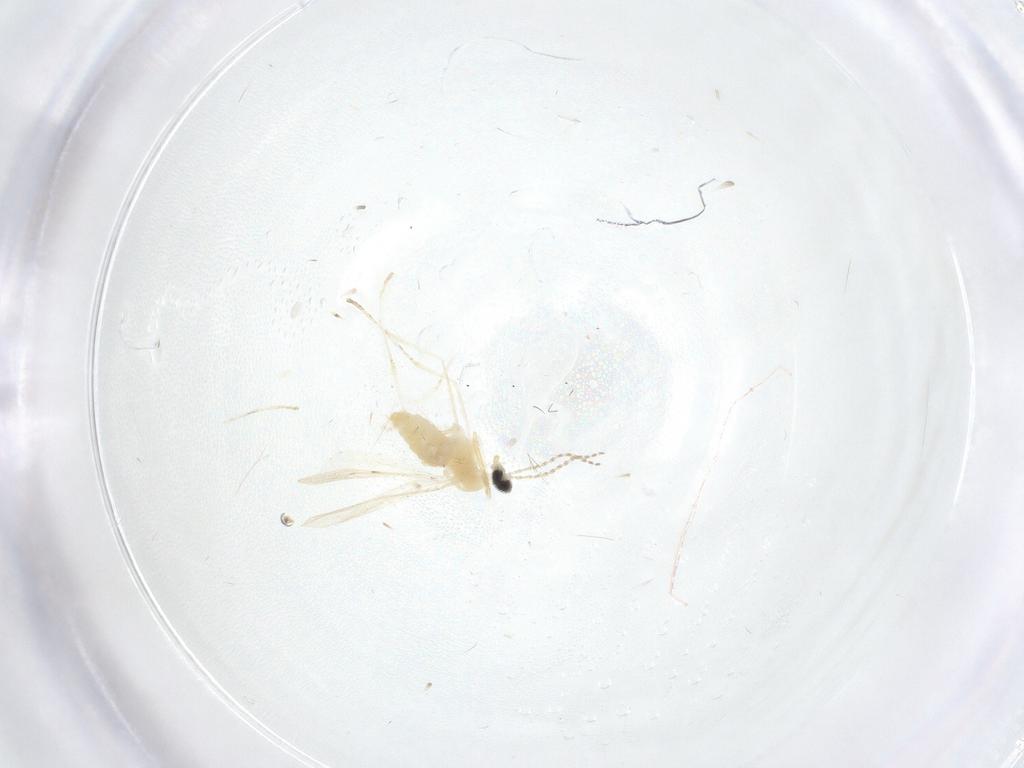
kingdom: Animalia
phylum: Arthropoda
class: Insecta
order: Diptera
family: Cecidomyiidae
